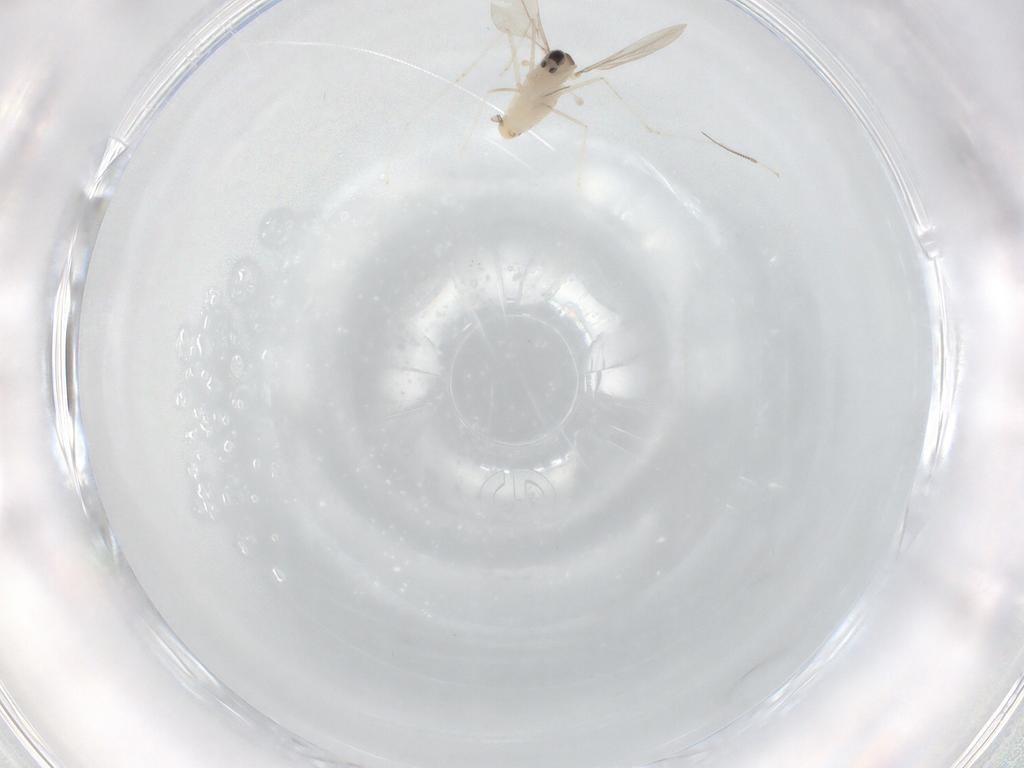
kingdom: Animalia
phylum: Arthropoda
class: Insecta
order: Diptera
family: Cecidomyiidae
